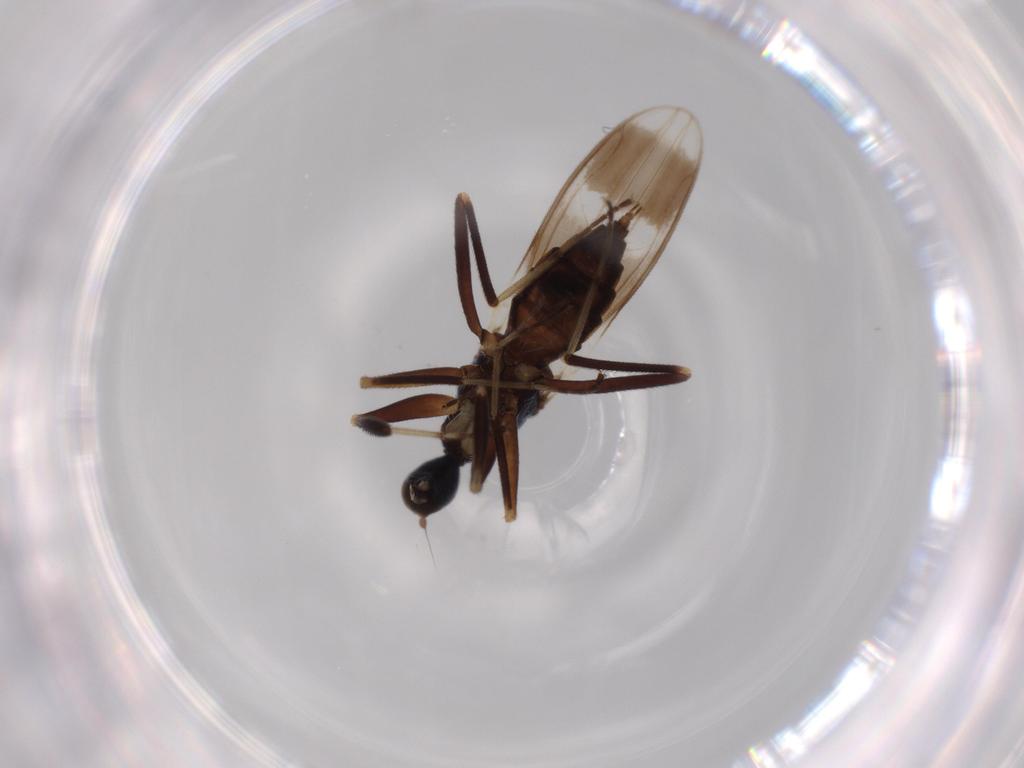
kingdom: Animalia
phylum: Arthropoda
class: Insecta
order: Diptera
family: Hybotidae
